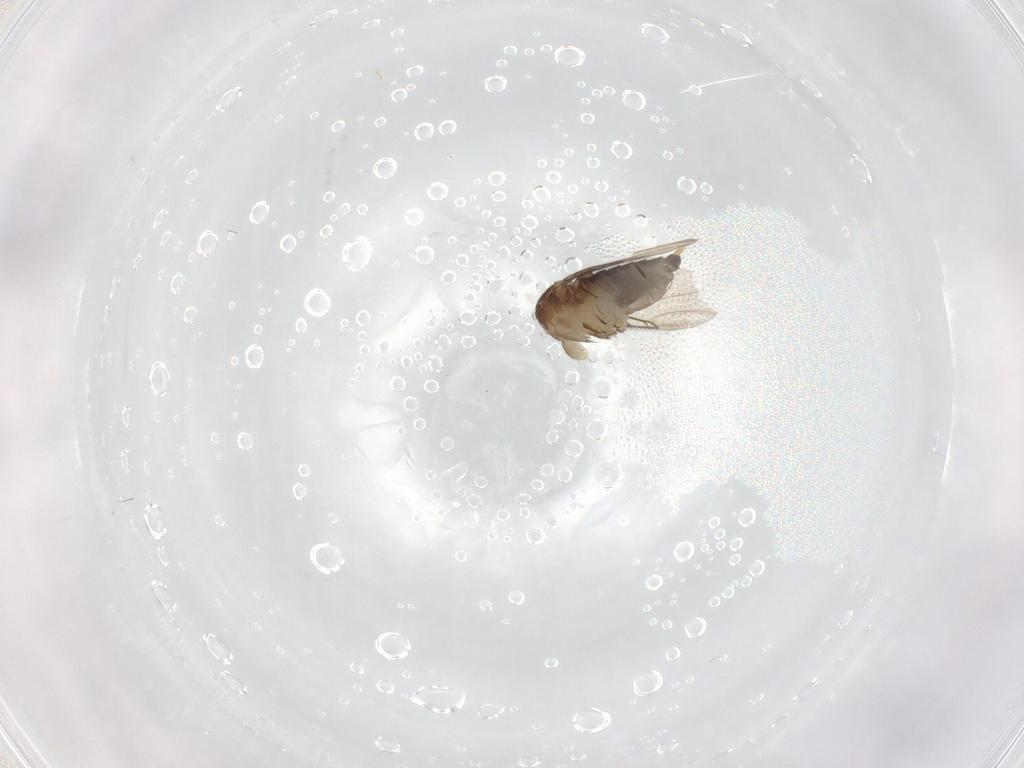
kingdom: Animalia
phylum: Arthropoda
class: Insecta
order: Diptera
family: Phoridae
